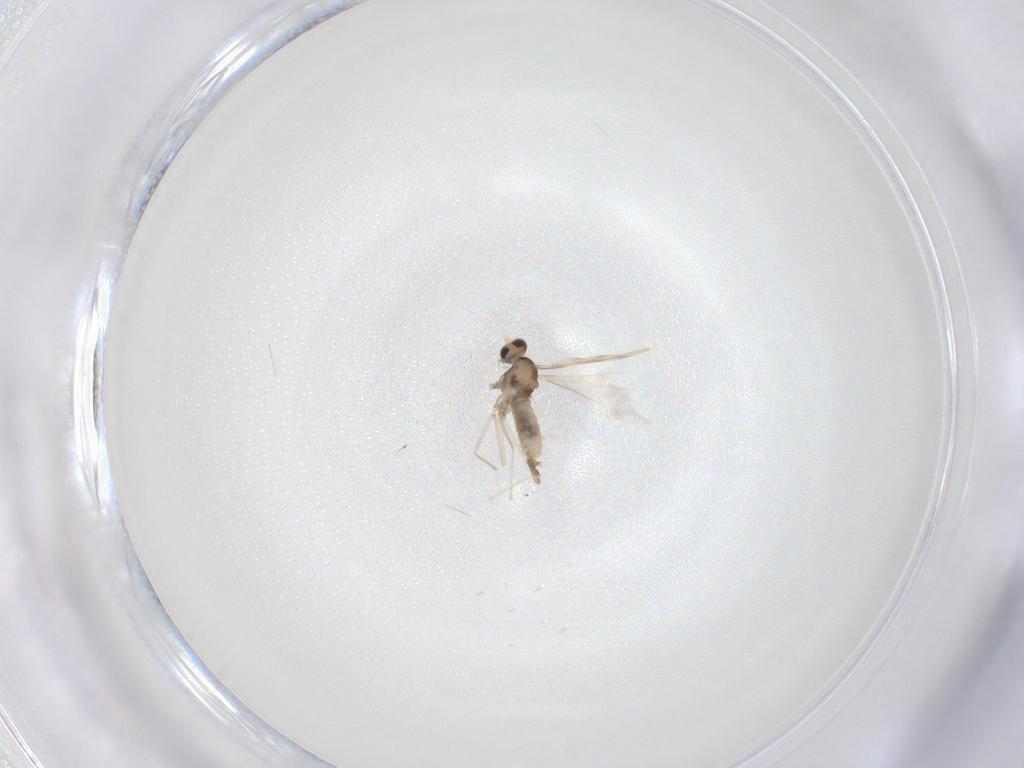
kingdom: Animalia
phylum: Arthropoda
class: Insecta
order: Diptera
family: Cecidomyiidae
